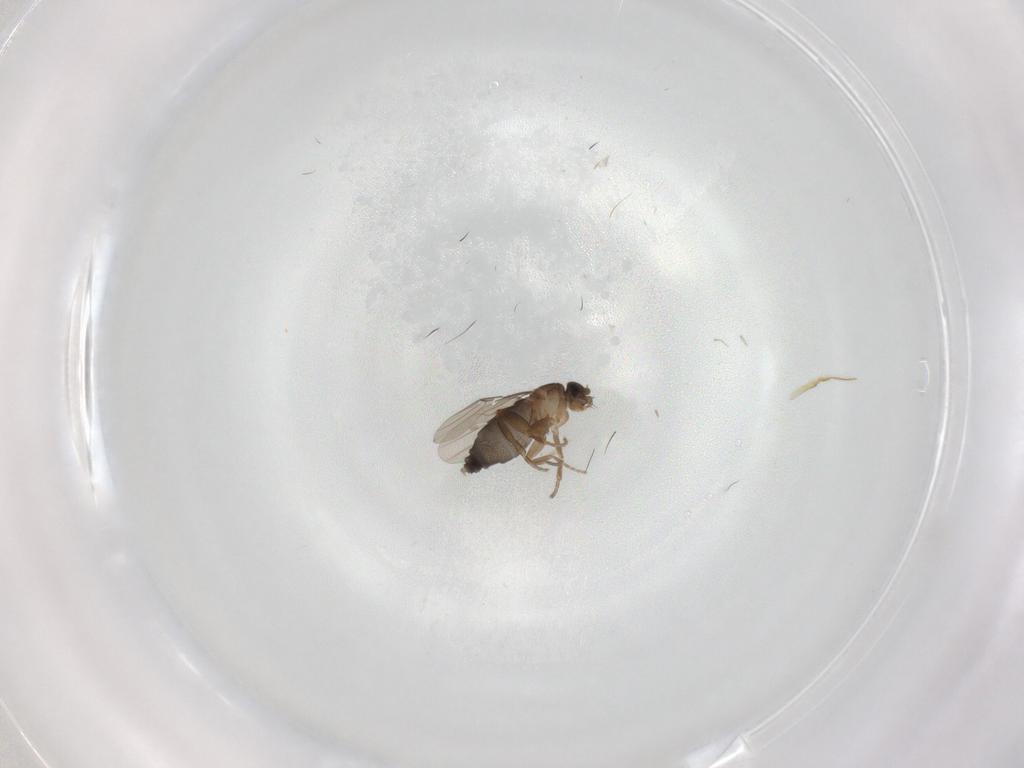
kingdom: Animalia
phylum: Arthropoda
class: Insecta
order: Diptera
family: Phoridae
